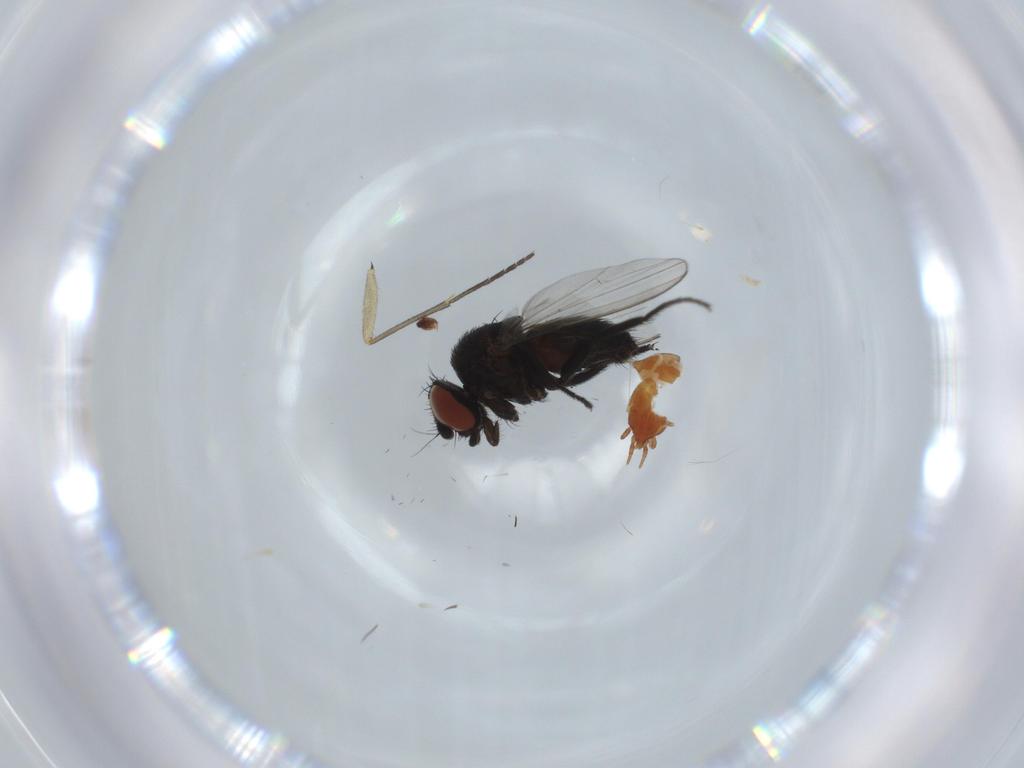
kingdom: Animalia
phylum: Arthropoda
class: Insecta
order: Diptera
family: Milichiidae
